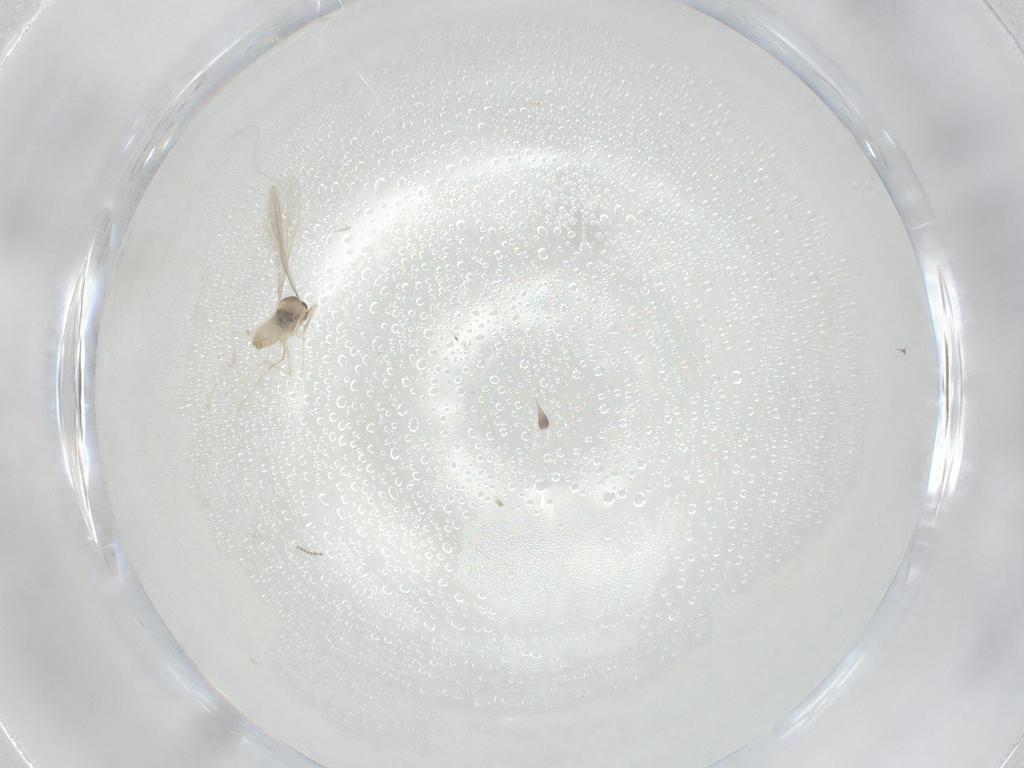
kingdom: Animalia
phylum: Arthropoda
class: Insecta
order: Diptera
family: Cecidomyiidae
